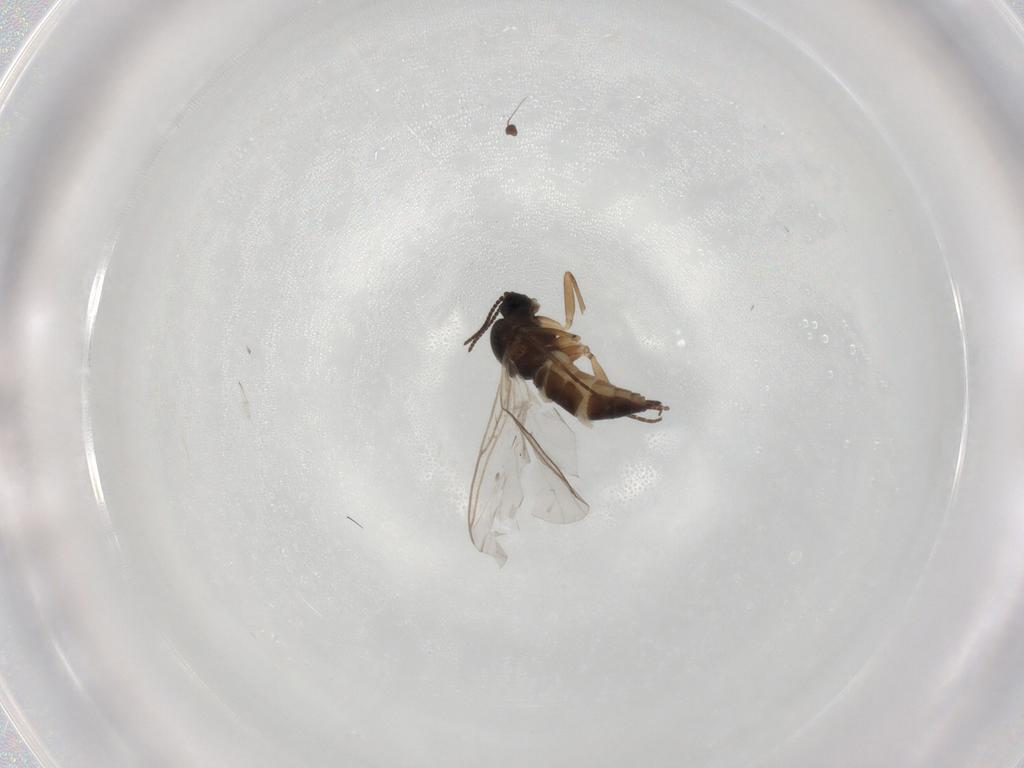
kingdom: Animalia
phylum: Arthropoda
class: Insecta
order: Diptera
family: Sciaridae
